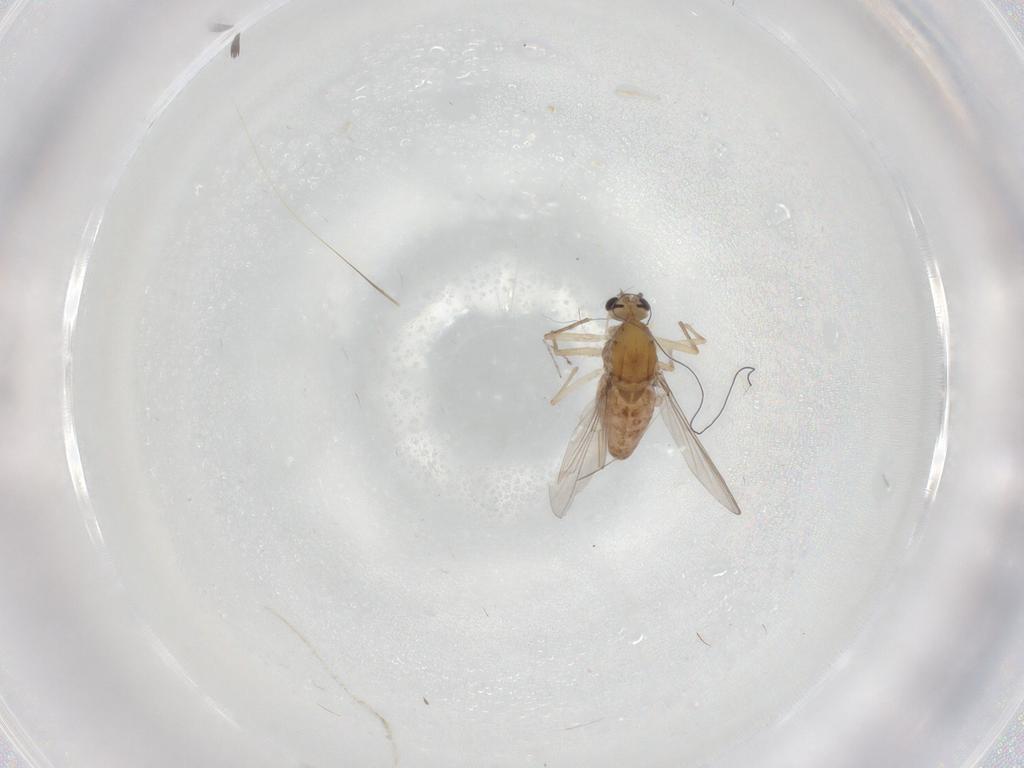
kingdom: Animalia
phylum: Arthropoda
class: Insecta
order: Diptera
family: Chironomidae
